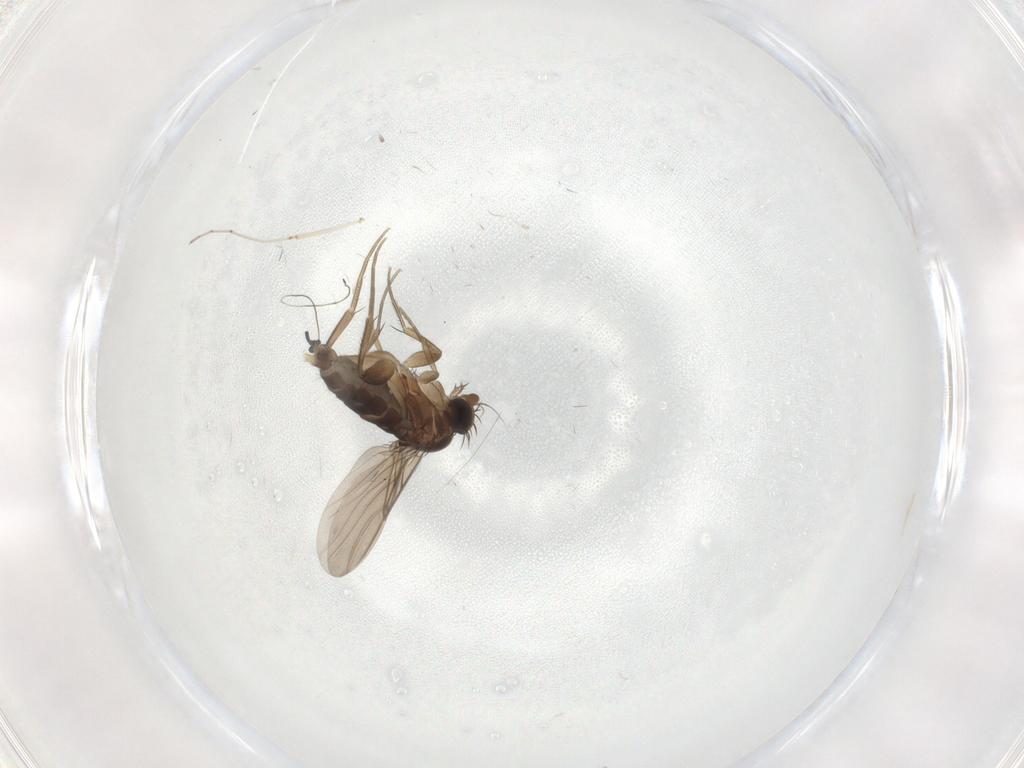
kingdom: Animalia
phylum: Arthropoda
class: Insecta
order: Diptera
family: Phoridae
